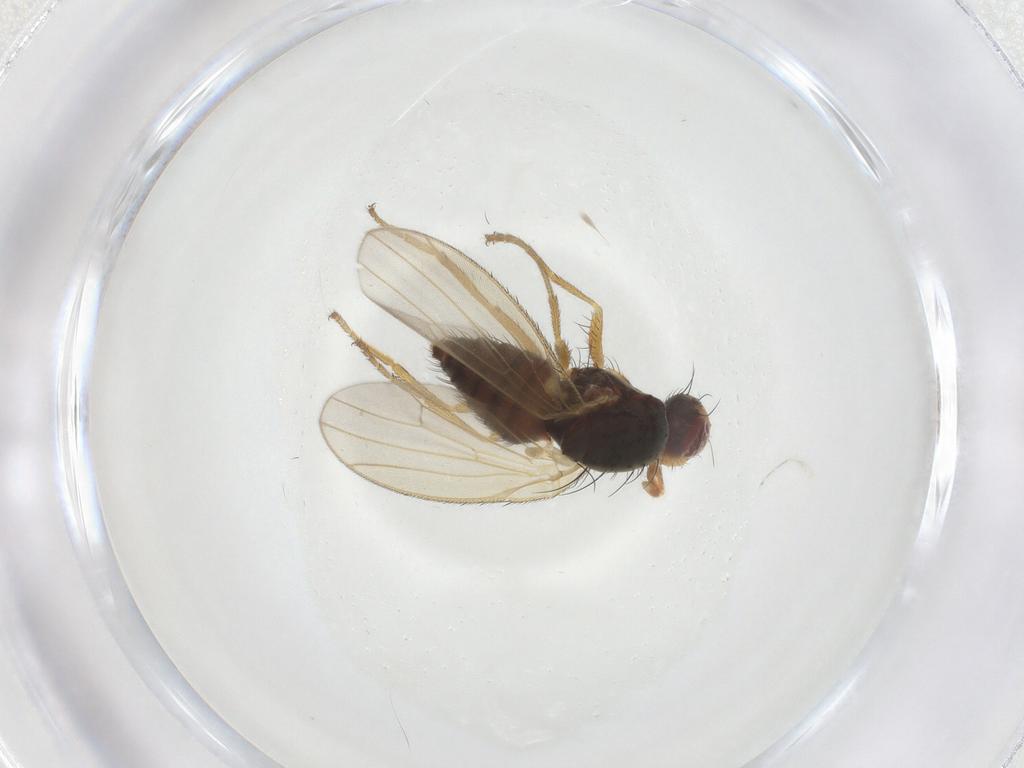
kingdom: Animalia
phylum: Arthropoda
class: Insecta
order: Diptera
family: Heleomyzidae
